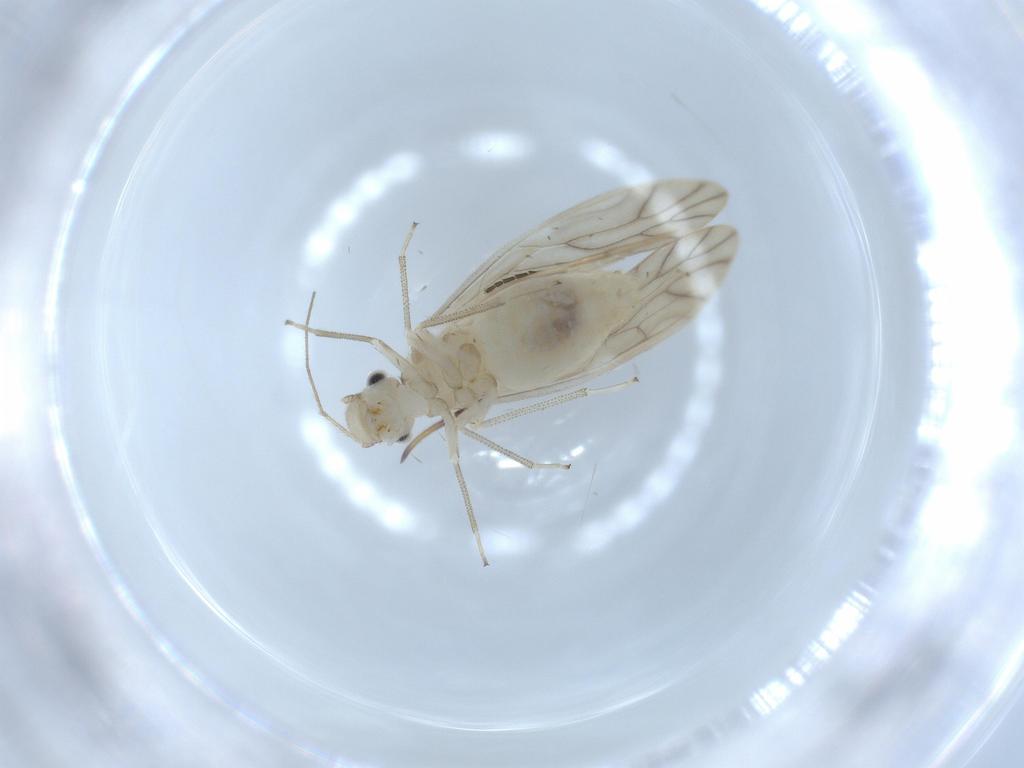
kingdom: Animalia
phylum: Arthropoda
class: Insecta
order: Psocodea
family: Caeciliusidae
